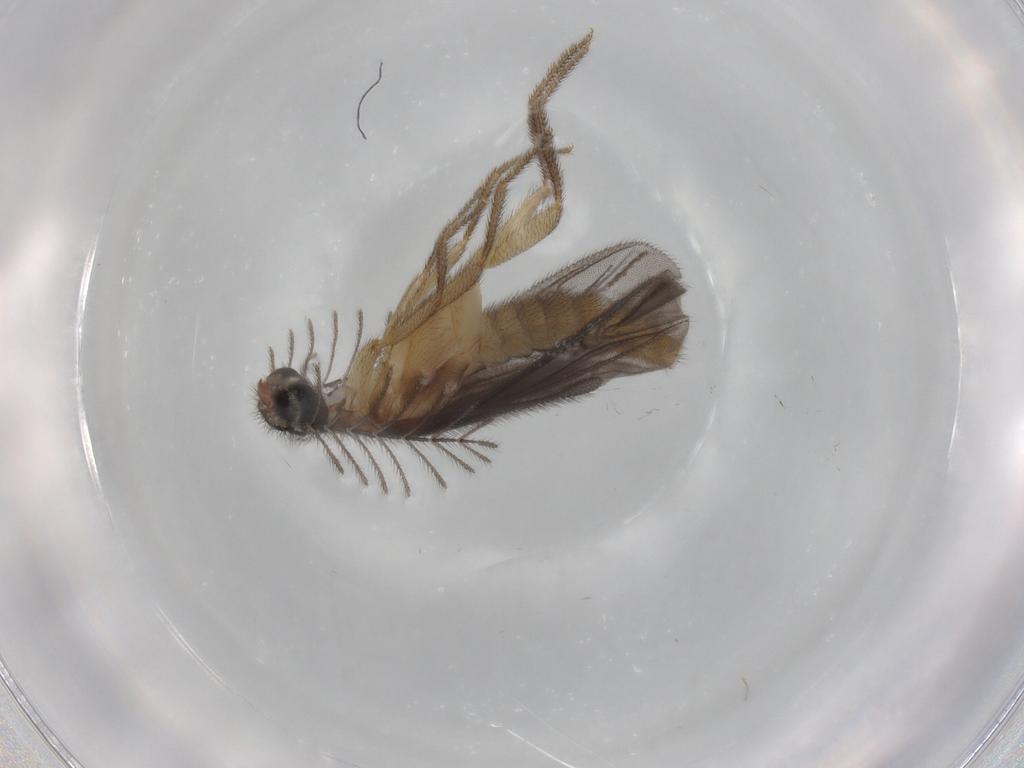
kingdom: Animalia
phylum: Arthropoda
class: Insecta
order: Coleoptera
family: Phengodidae
